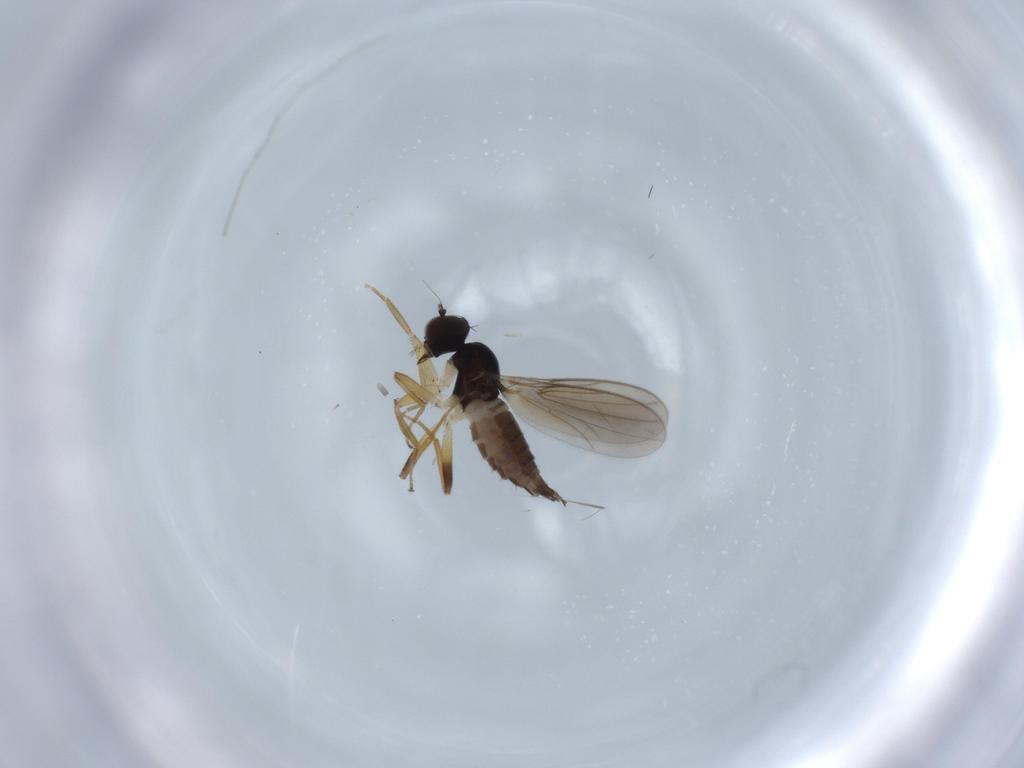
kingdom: Animalia
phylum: Arthropoda
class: Insecta
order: Diptera
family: Hybotidae
